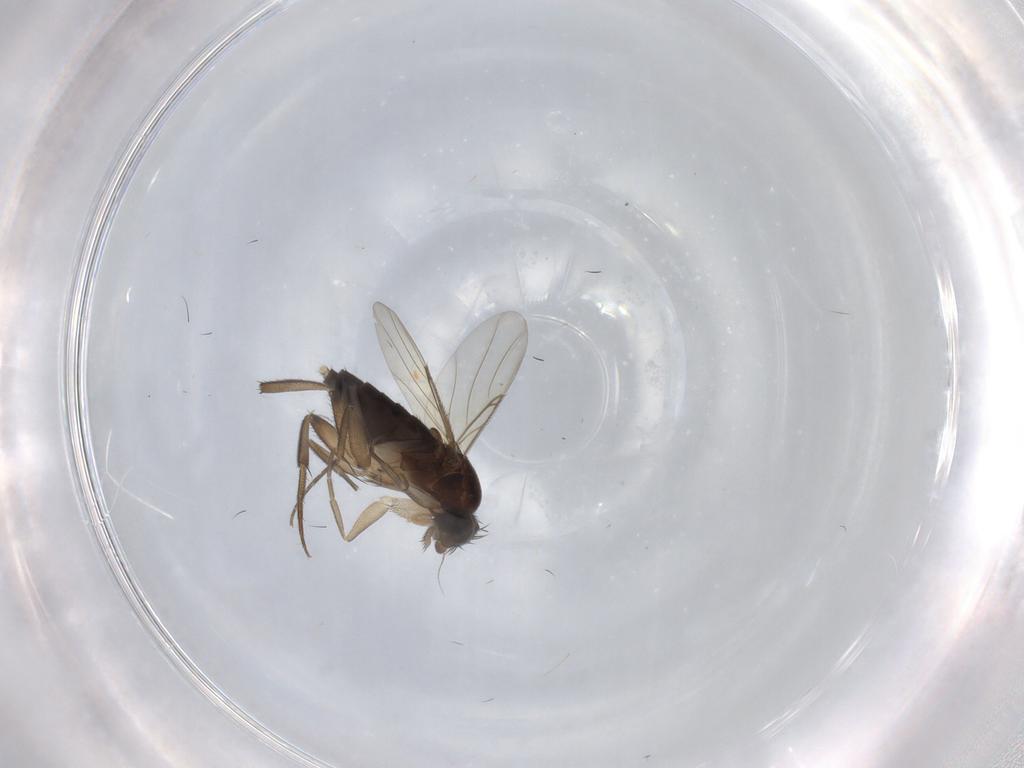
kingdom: Animalia
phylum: Arthropoda
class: Insecta
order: Diptera
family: Phoridae
